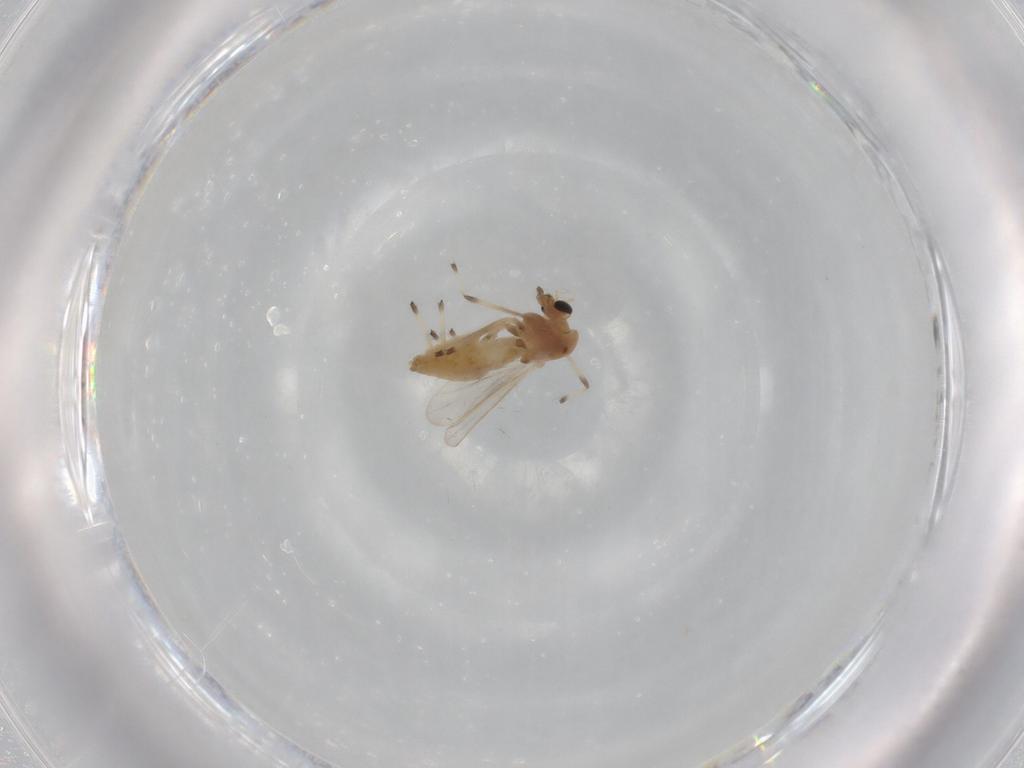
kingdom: Animalia
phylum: Arthropoda
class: Insecta
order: Diptera
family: Chironomidae
